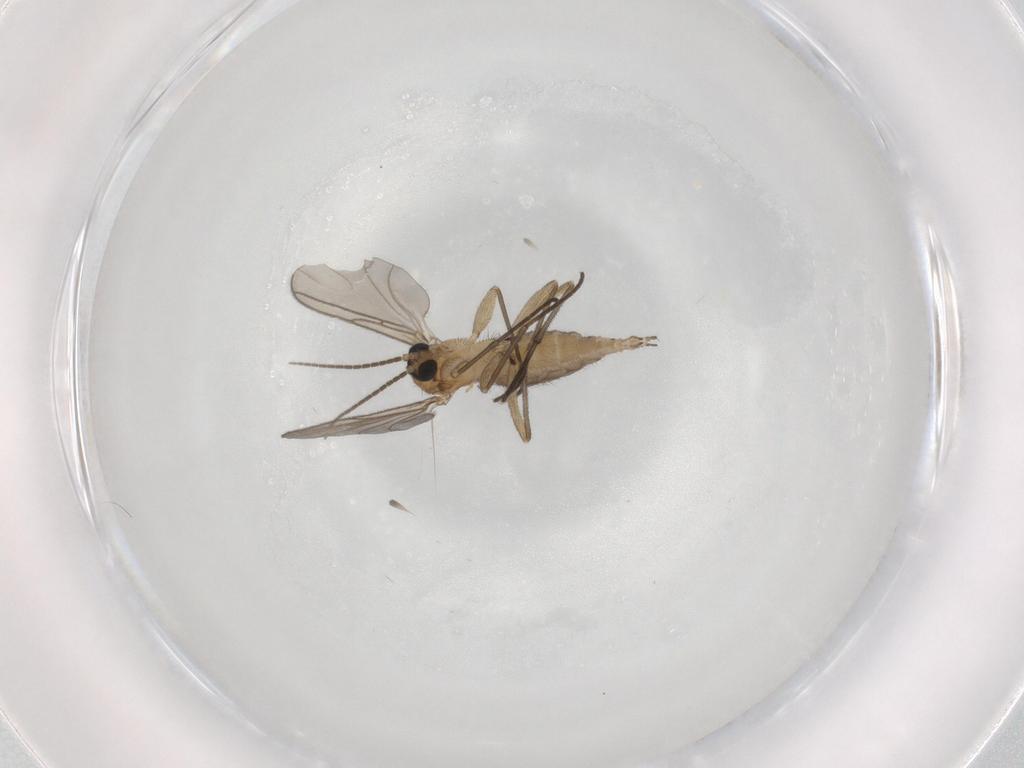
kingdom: Animalia
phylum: Arthropoda
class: Insecta
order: Diptera
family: Sciaridae
